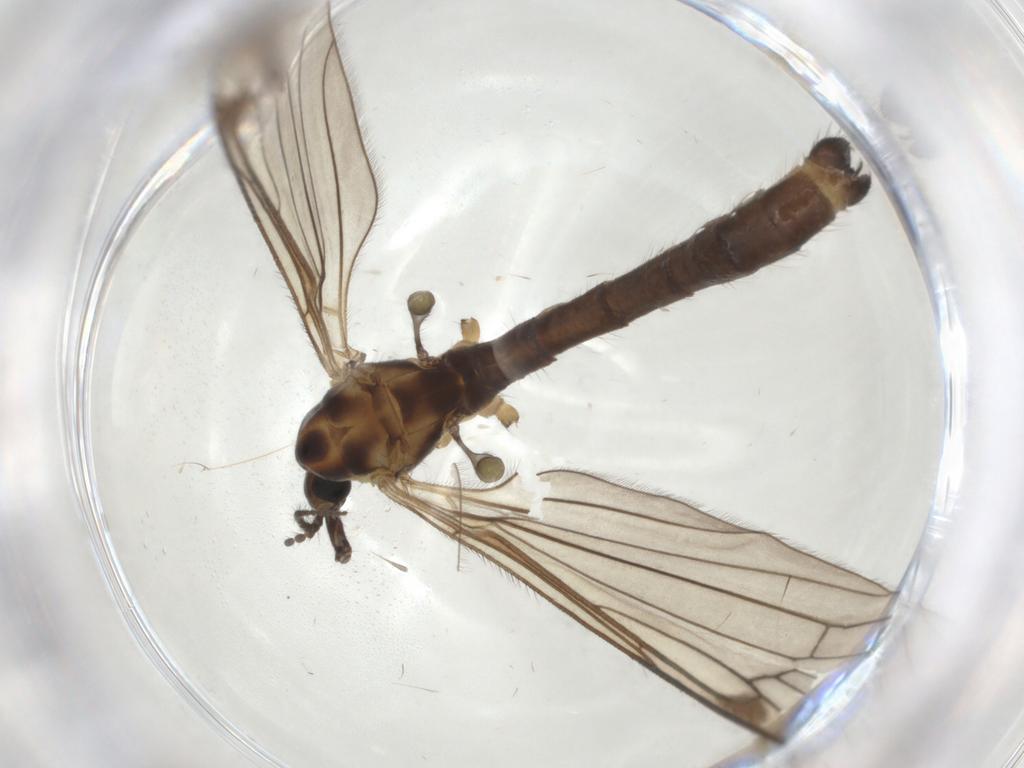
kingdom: Animalia
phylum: Arthropoda
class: Insecta
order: Diptera
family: Limoniidae
